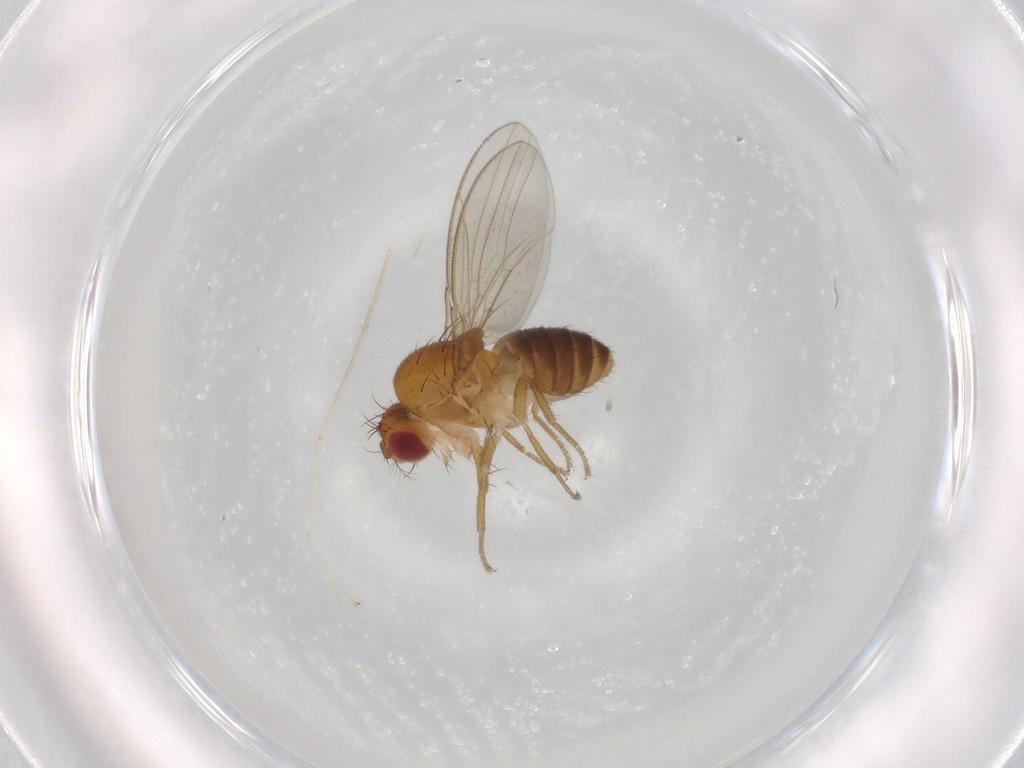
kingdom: Animalia
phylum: Arthropoda
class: Insecta
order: Diptera
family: Drosophilidae
